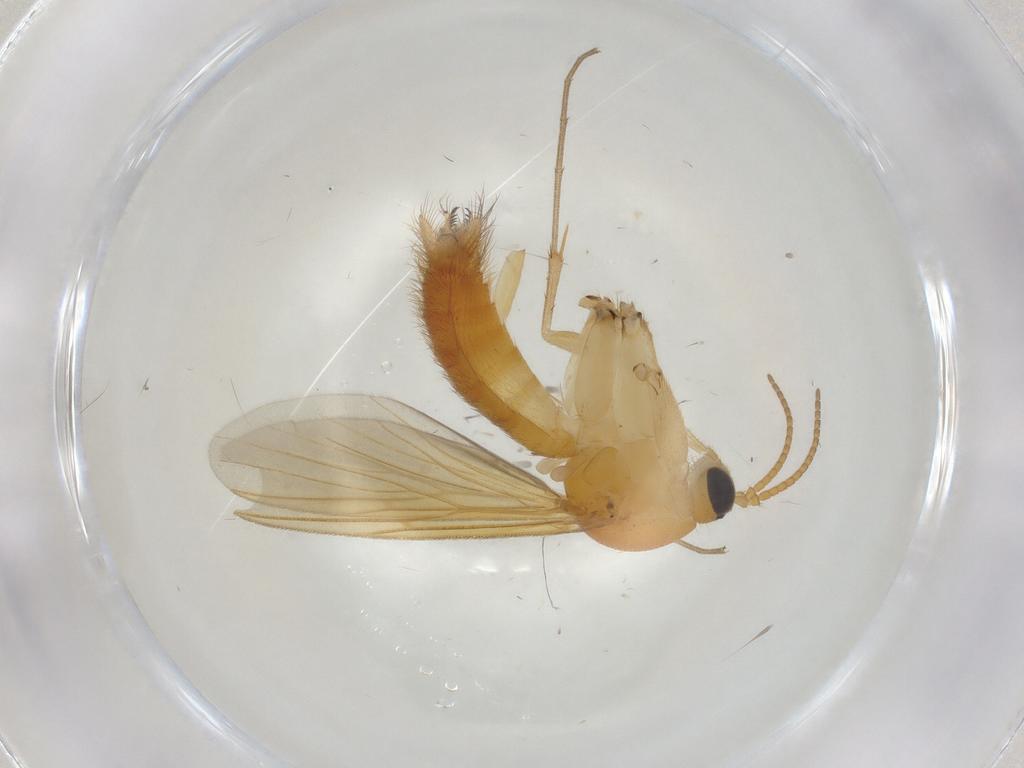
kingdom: Animalia
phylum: Arthropoda
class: Insecta
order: Diptera
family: Mycetophilidae
